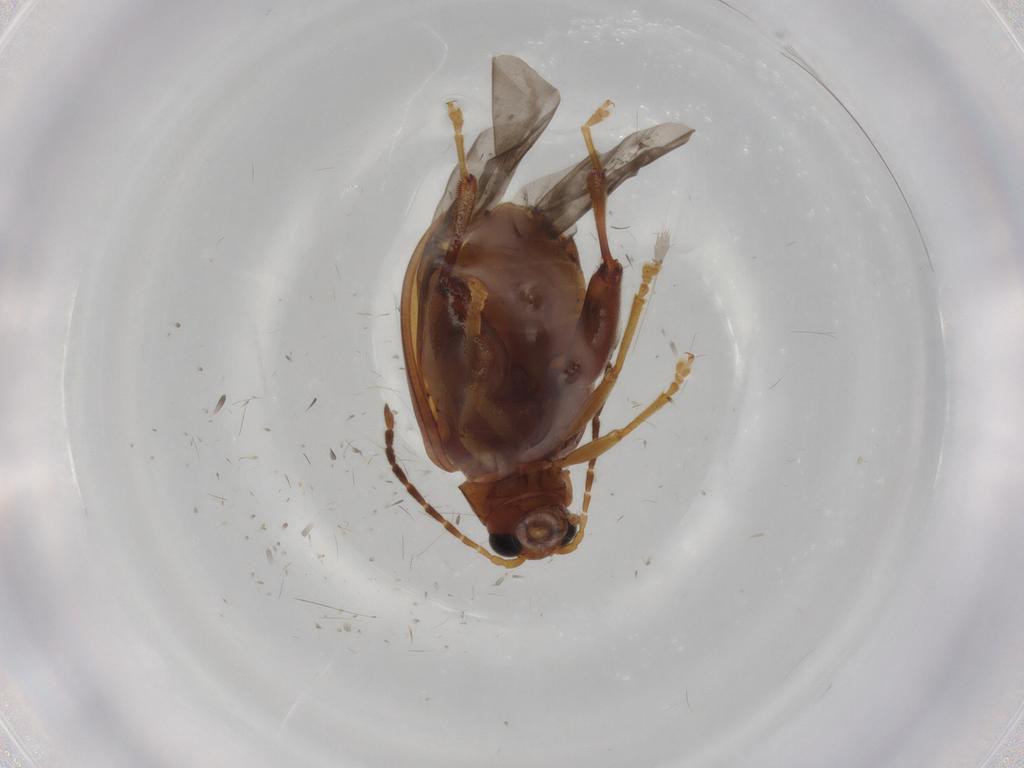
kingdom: Animalia
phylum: Arthropoda
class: Insecta
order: Coleoptera
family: Chrysomelidae
